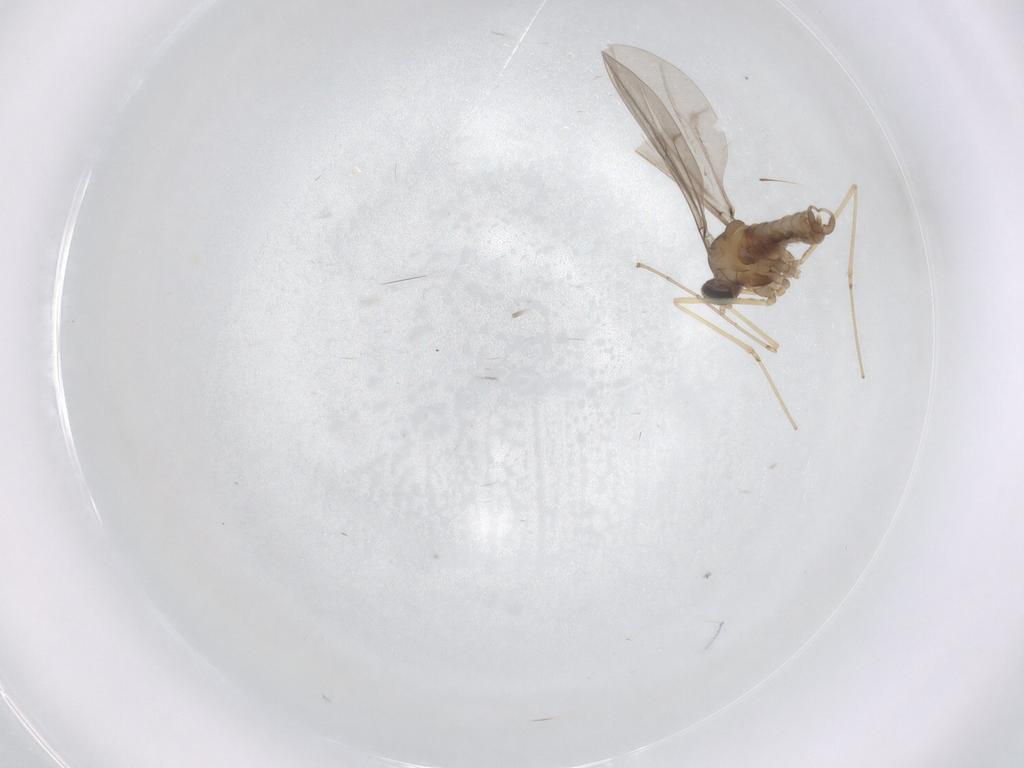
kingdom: Animalia
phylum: Arthropoda
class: Insecta
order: Diptera
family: Cecidomyiidae
